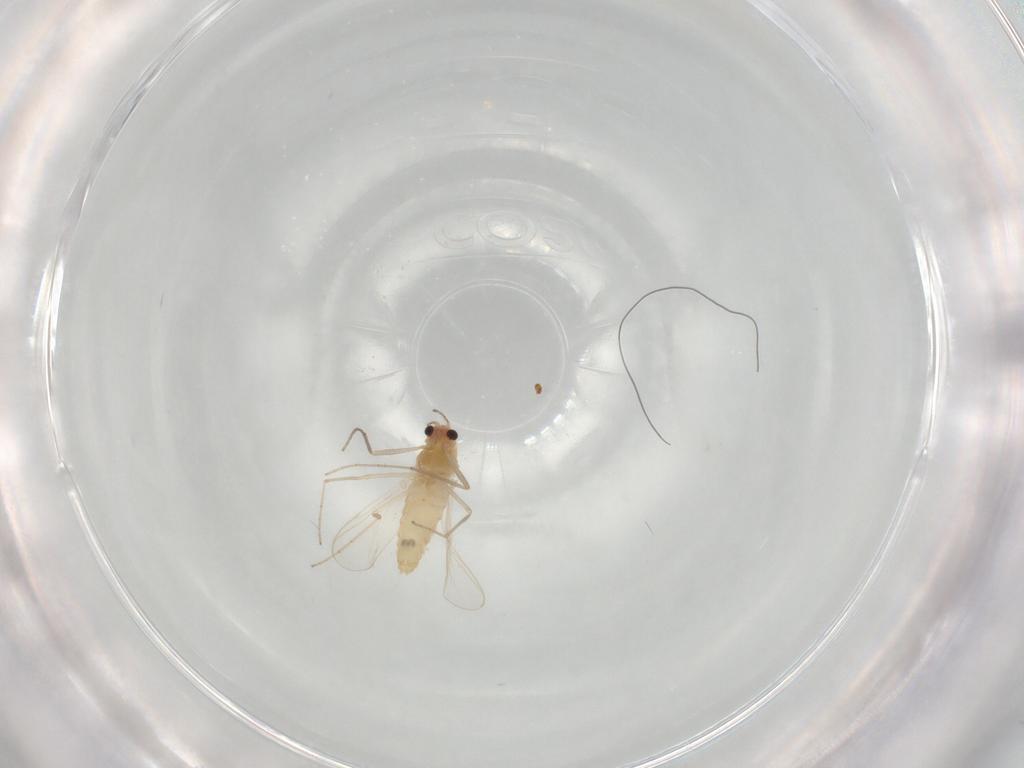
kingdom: Animalia
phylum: Arthropoda
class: Insecta
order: Diptera
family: Chironomidae
